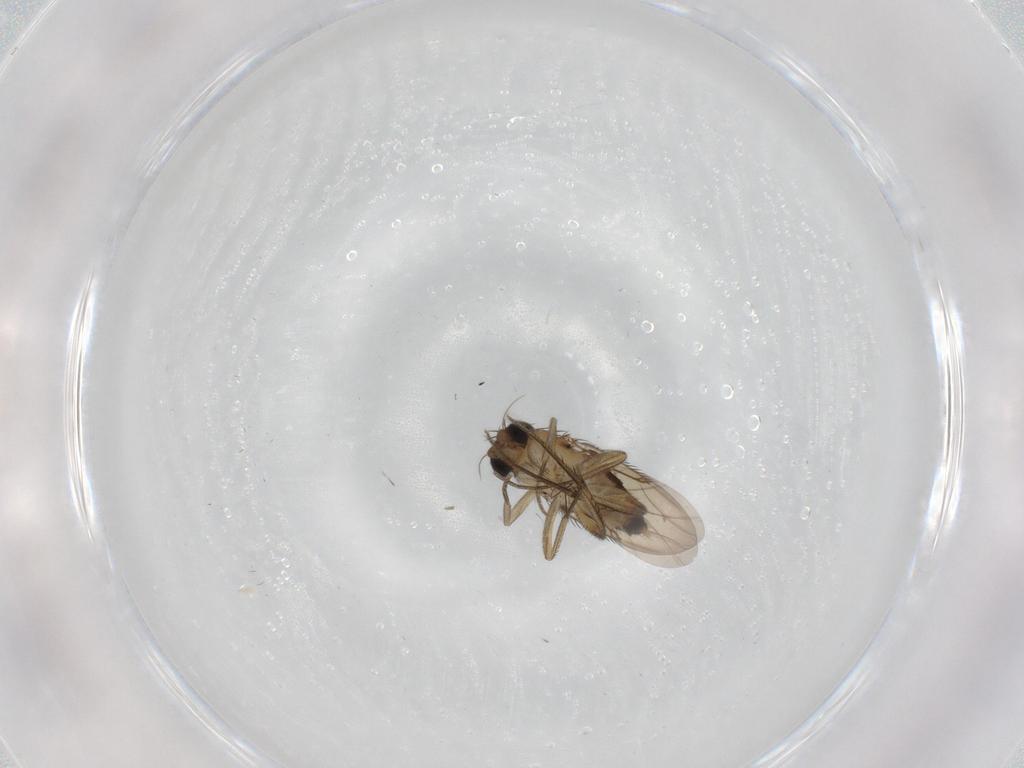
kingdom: Animalia
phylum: Arthropoda
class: Insecta
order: Diptera
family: Phoridae
